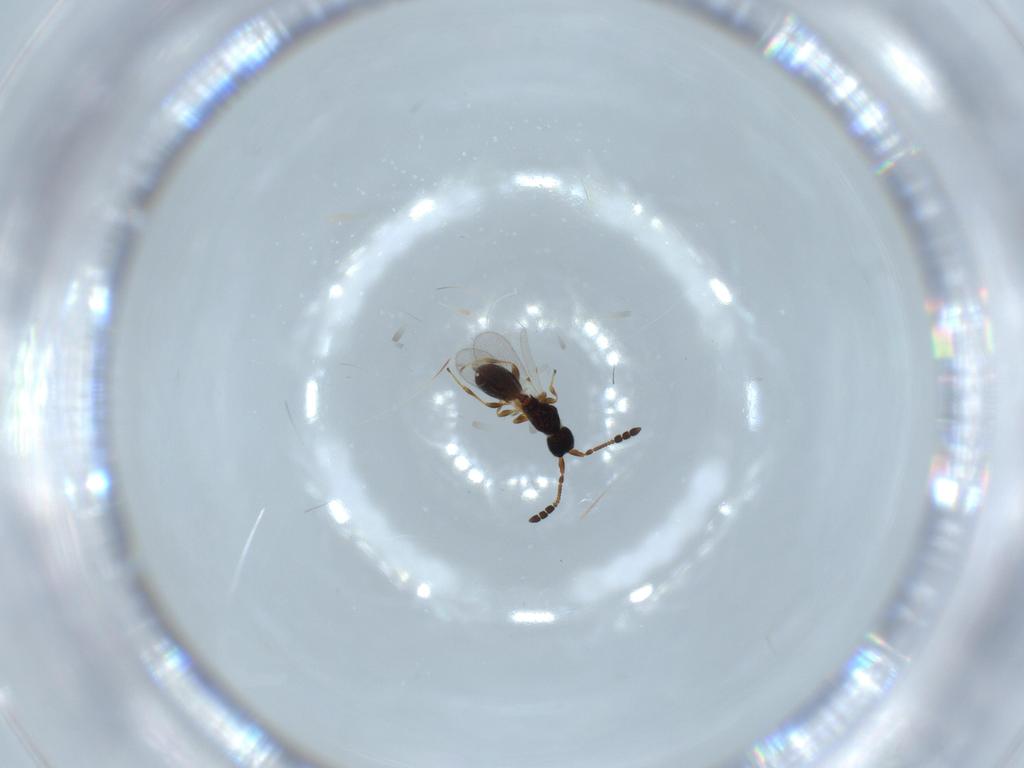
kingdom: Animalia
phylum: Arthropoda
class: Insecta
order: Hymenoptera
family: Diapriidae
